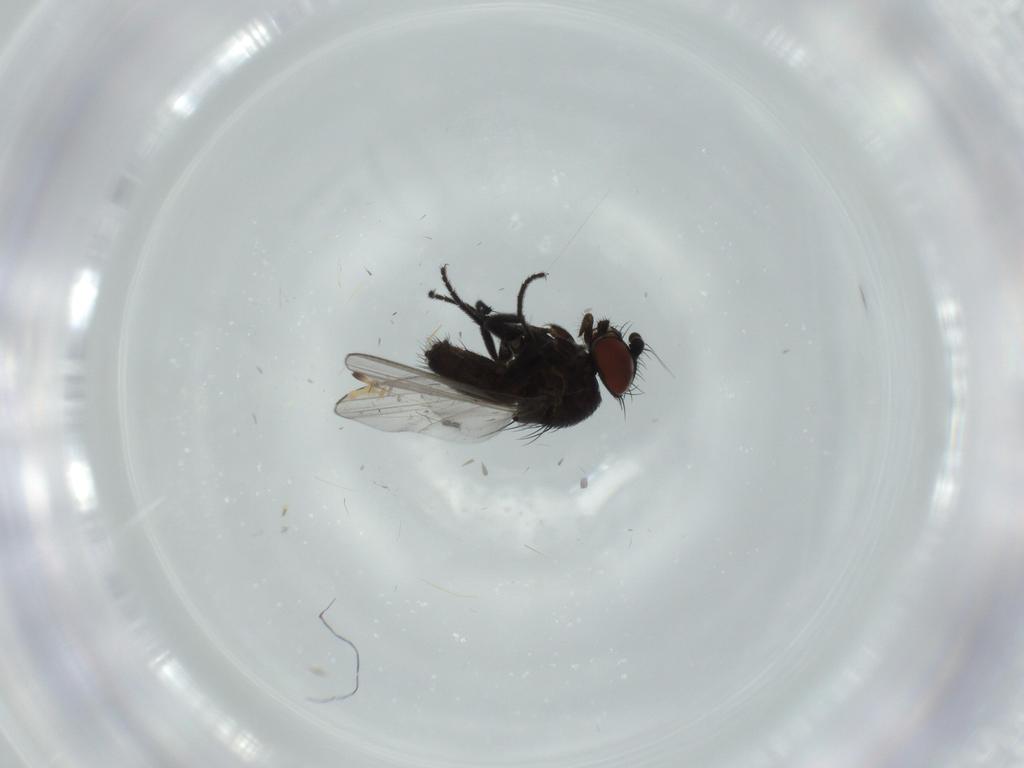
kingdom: Animalia
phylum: Arthropoda
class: Insecta
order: Diptera
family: Milichiidae
